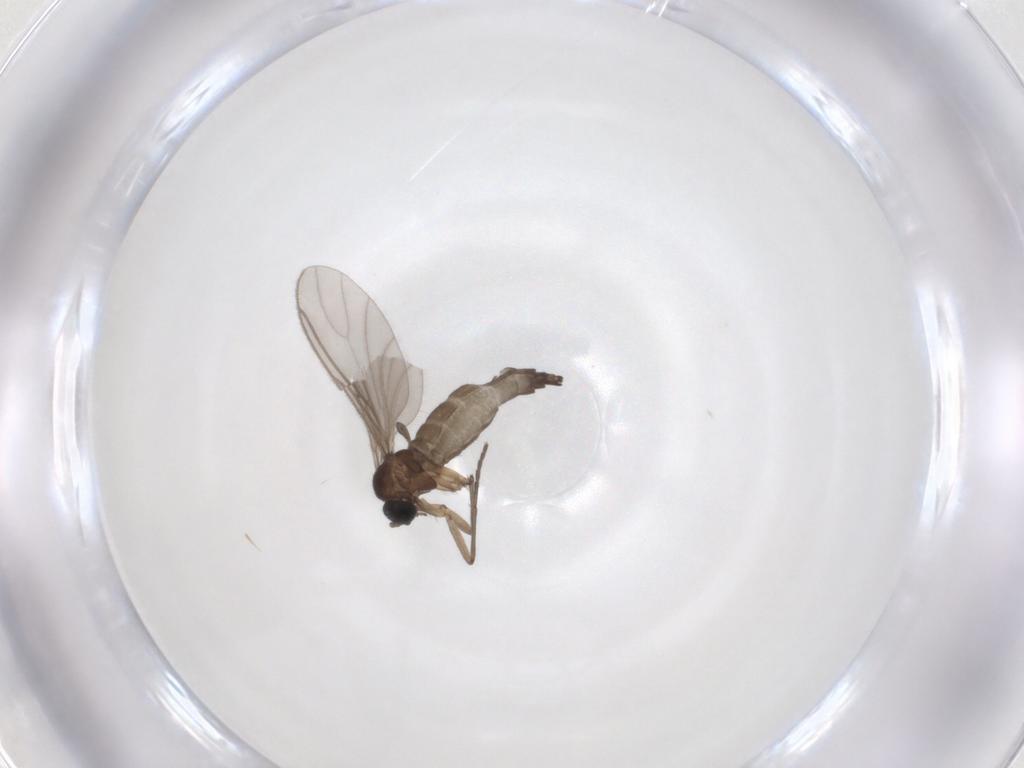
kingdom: Animalia
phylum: Arthropoda
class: Insecta
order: Diptera
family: Sciaridae
